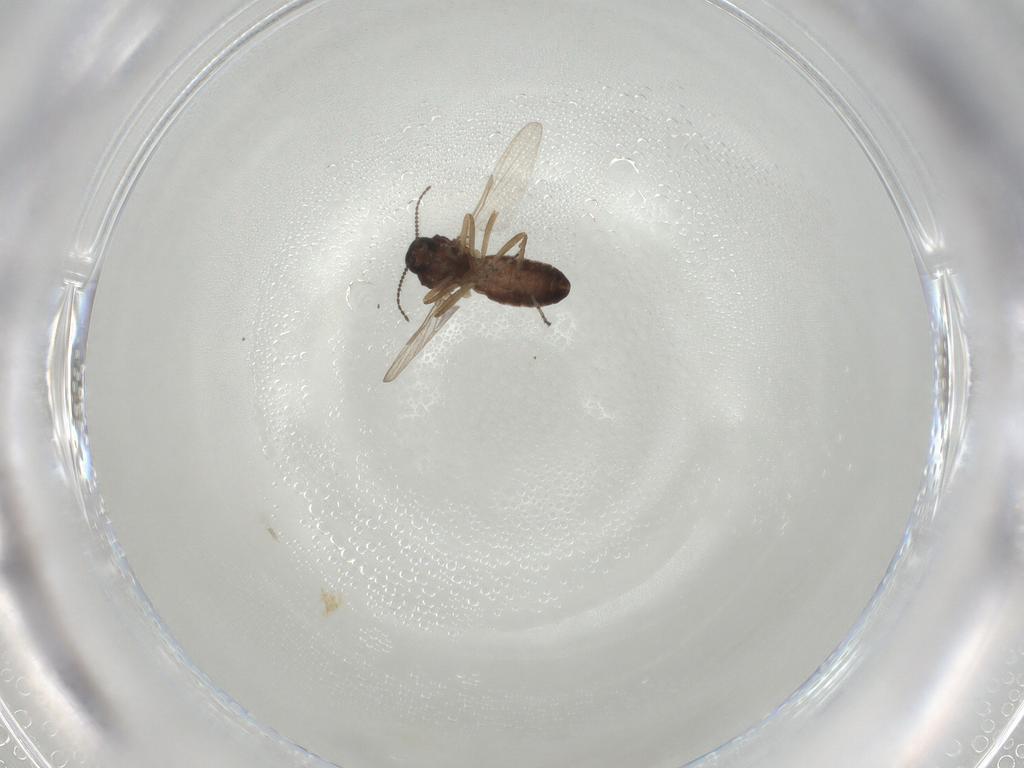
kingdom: Animalia
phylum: Arthropoda
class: Insecta
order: Diptera
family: Ceratopogonidae
